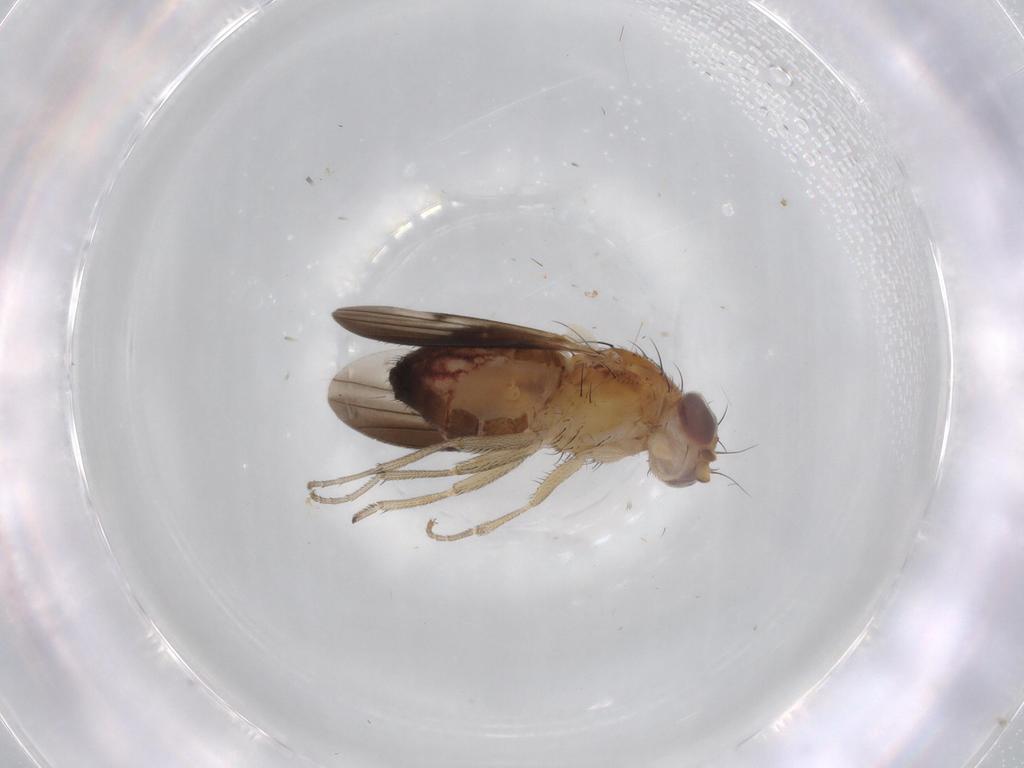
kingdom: Animalia
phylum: Arthropoda
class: Insecta
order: Diptera
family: Heleomyzidae
